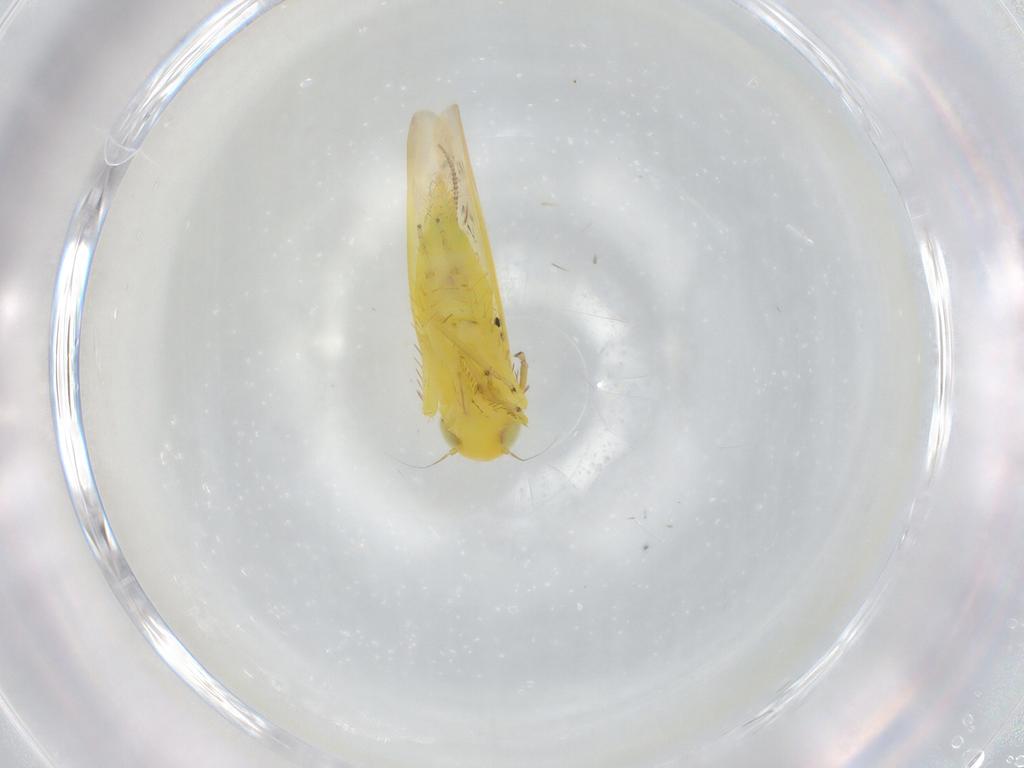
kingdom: Animalia
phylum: Arthropoda
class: Insecta
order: Hemiptera
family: Cicadellidae
